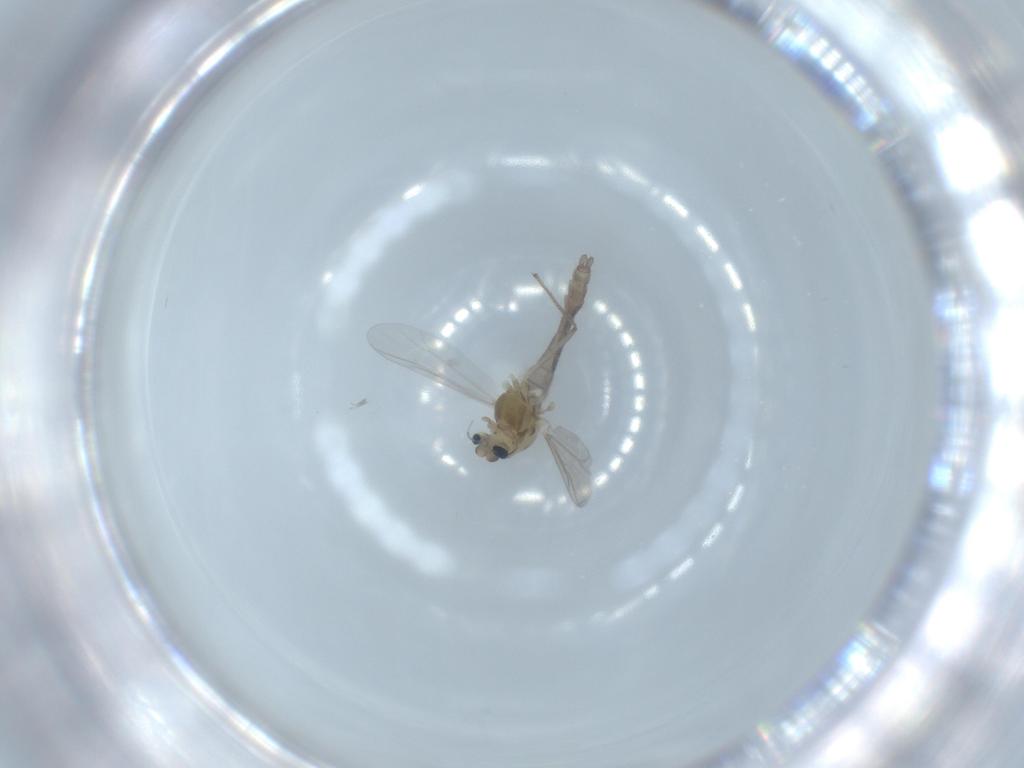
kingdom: Animalia
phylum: Arthropoda
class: Insecta
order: Diptera
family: Chironomidae
